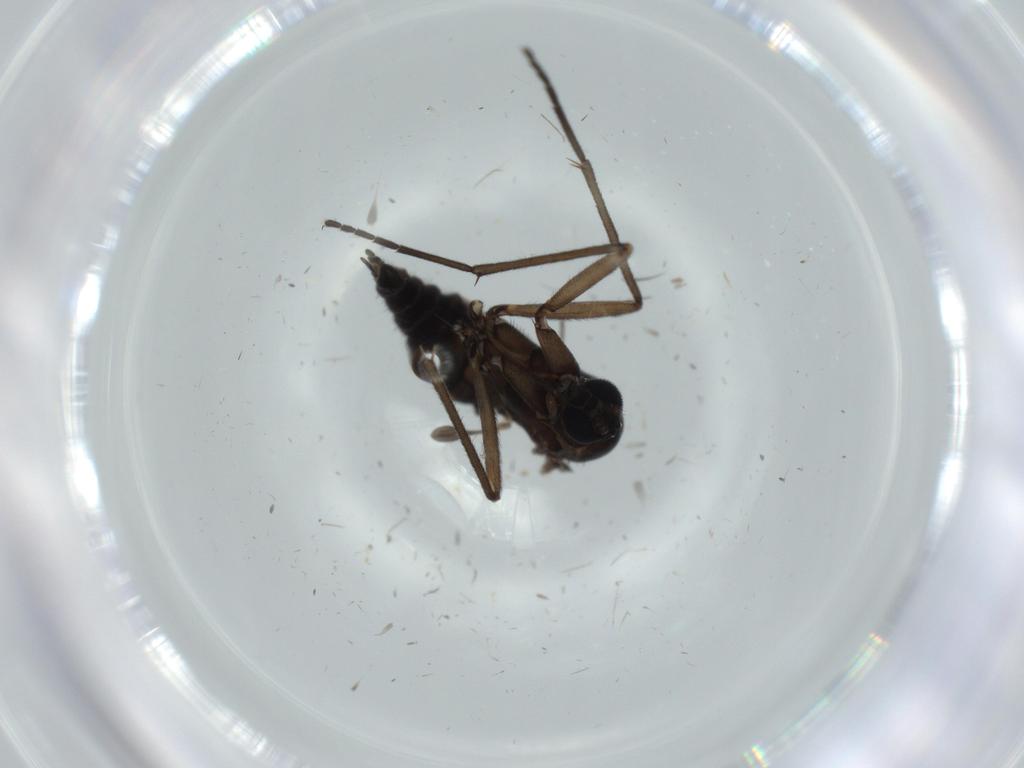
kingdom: Animalia
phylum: Arthropoda
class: Insecta
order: Diptera
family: Sciaridae
